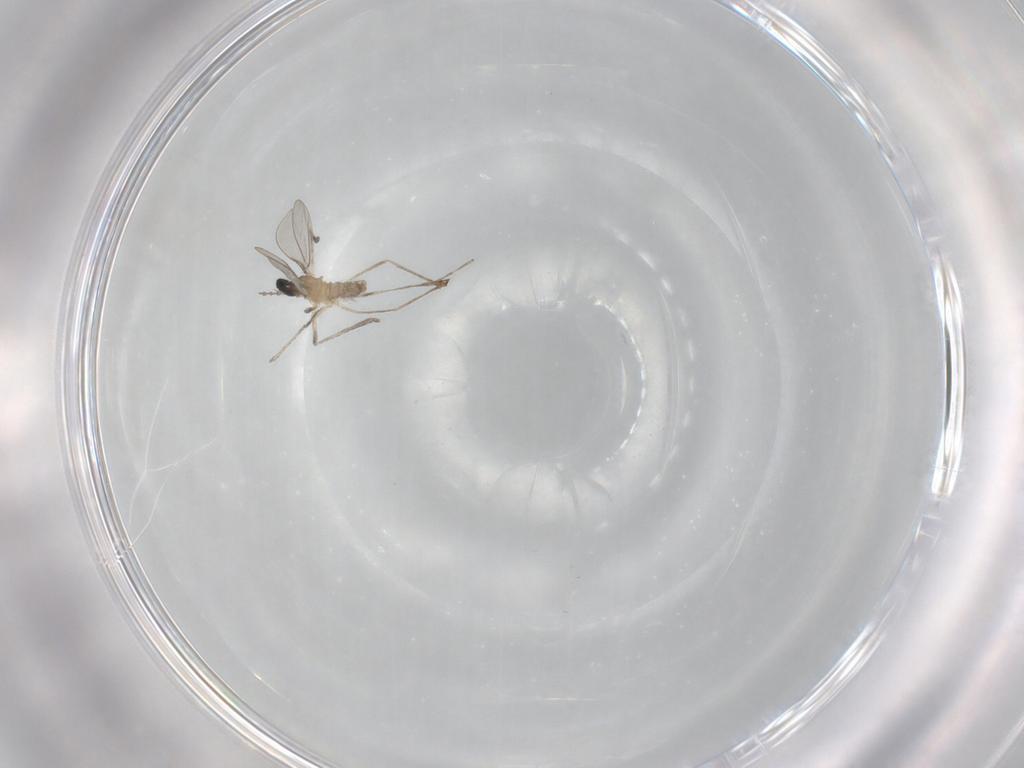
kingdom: Animalia
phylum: Arthropoda
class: Insecta
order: Diptera
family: Cecidomyiidae
